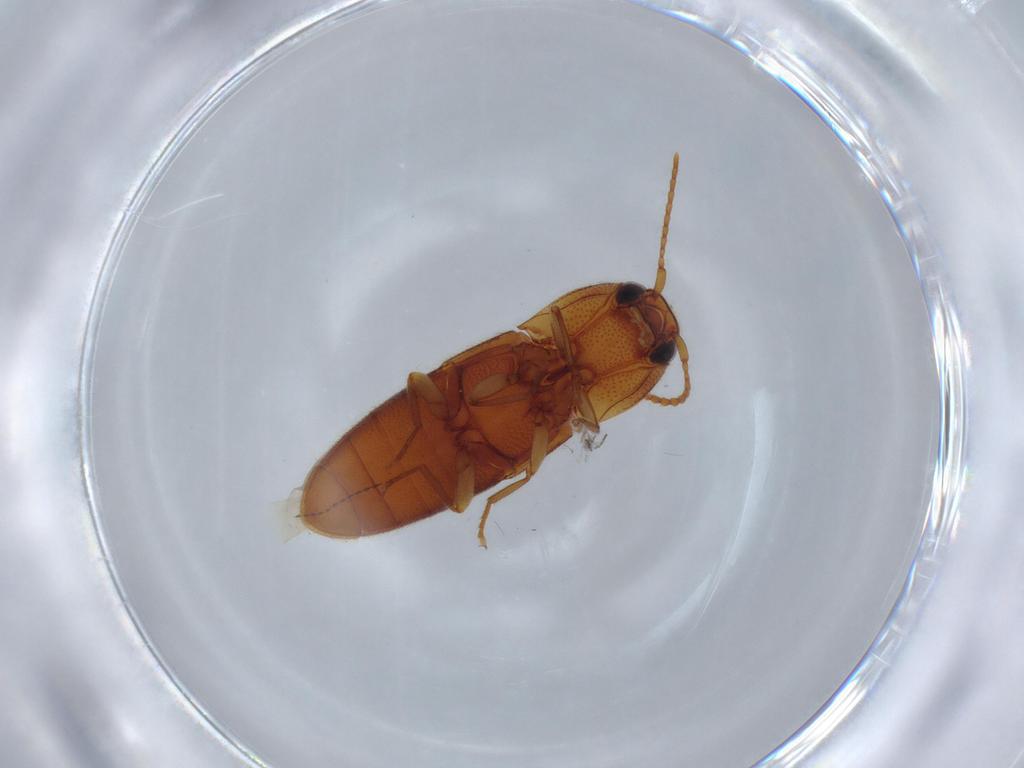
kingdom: Animalia
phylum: Arthropoda
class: Insecta
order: Coleoptera
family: Elateridae
